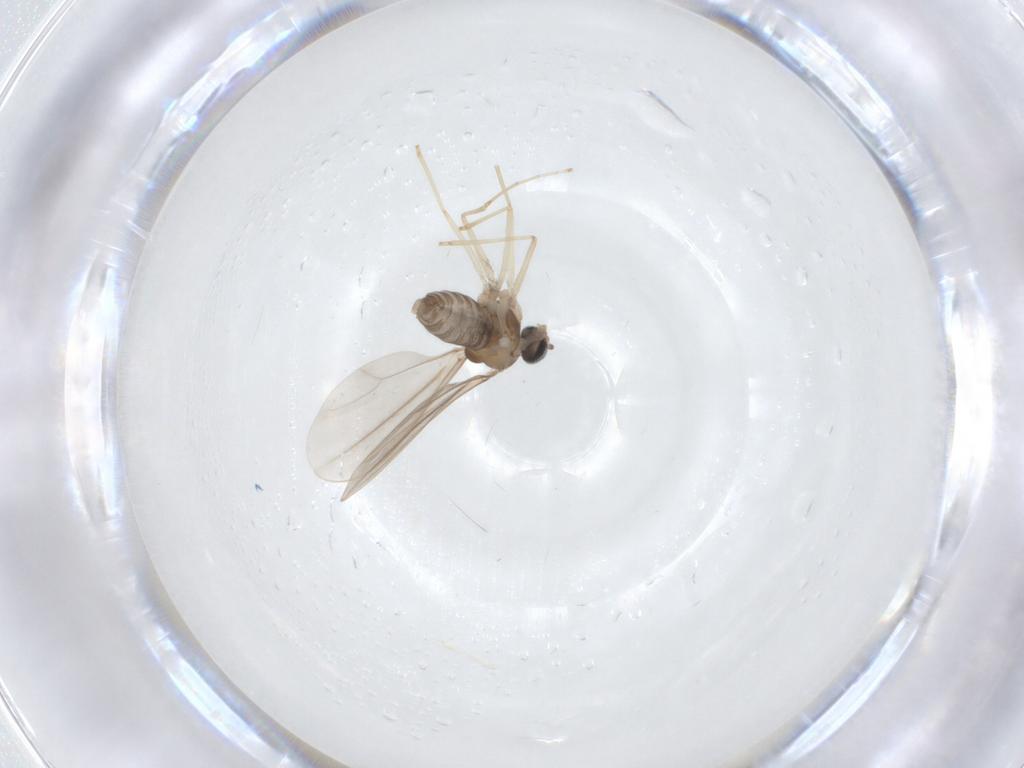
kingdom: Animalia
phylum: Arthropoda
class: Insecta
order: Diptera
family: Cecidomyiidae
